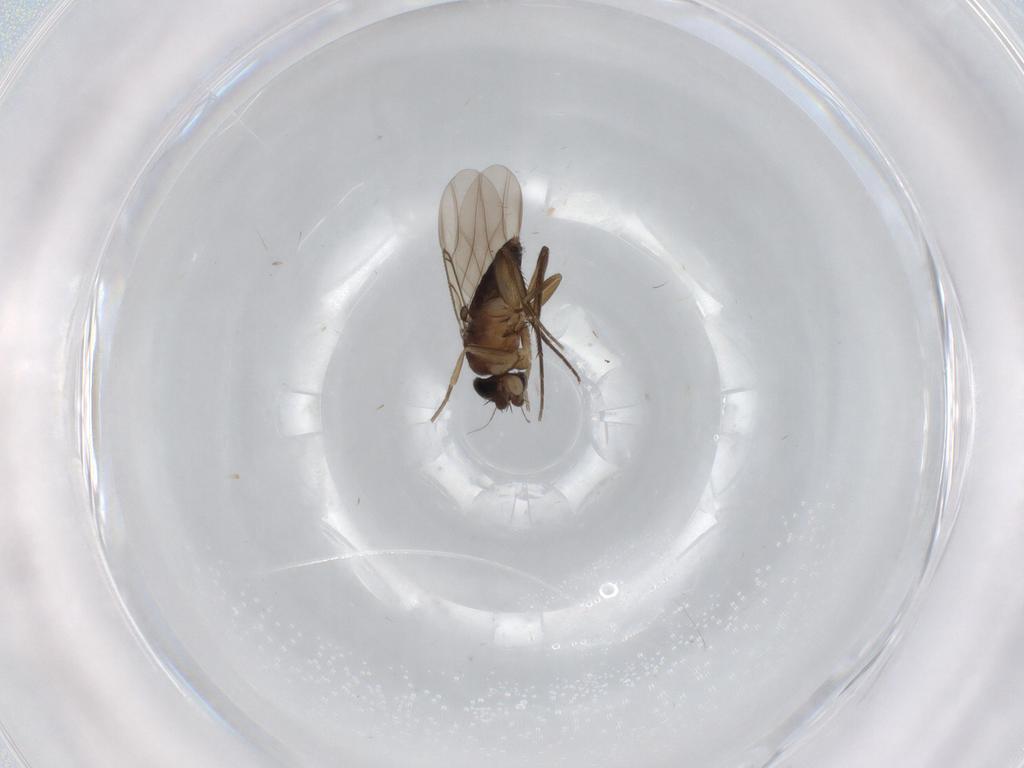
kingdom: Animalia
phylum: Arthropoda
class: Insecta
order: Diptera
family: Phoridae
